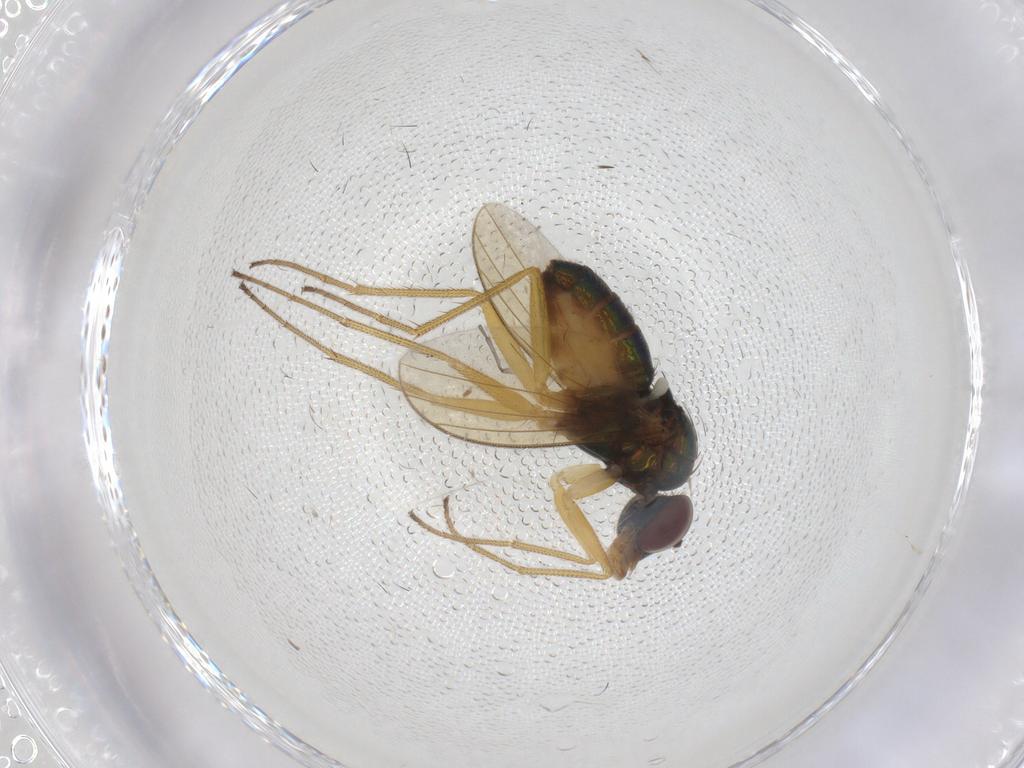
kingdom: Animalia
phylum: Arthropoda
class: Insecta
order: Diptera
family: Dolichopodidae
